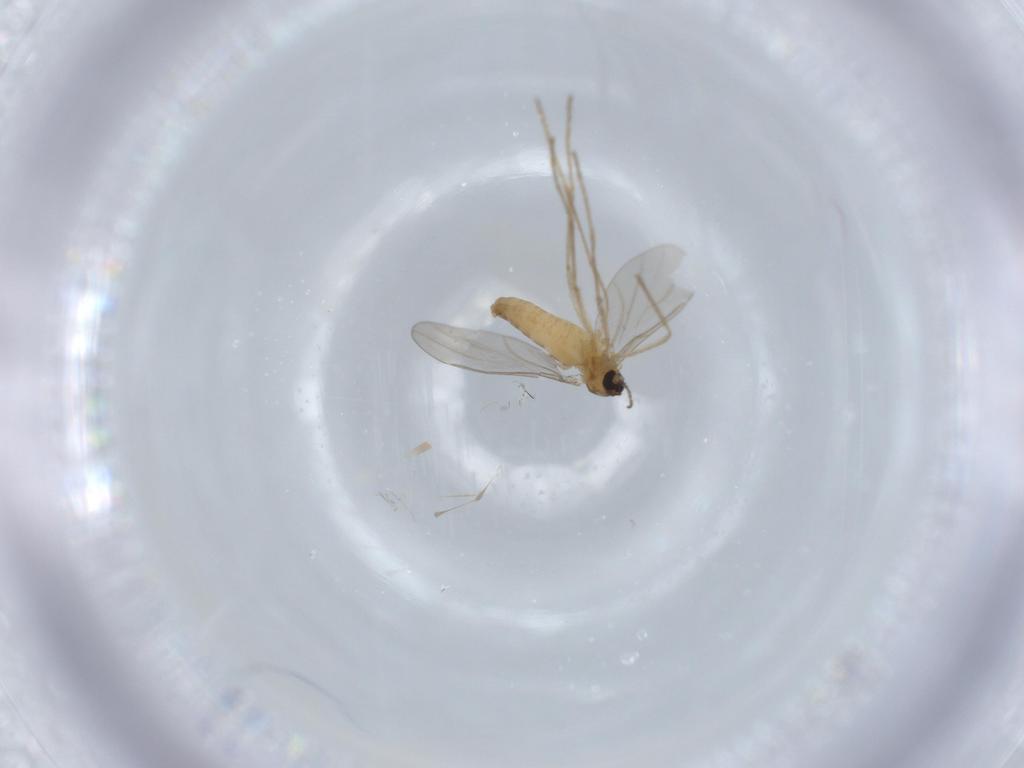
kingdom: Animalia
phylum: Arthropoda
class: Insecta
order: Diptera
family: Cecidomyiidae
